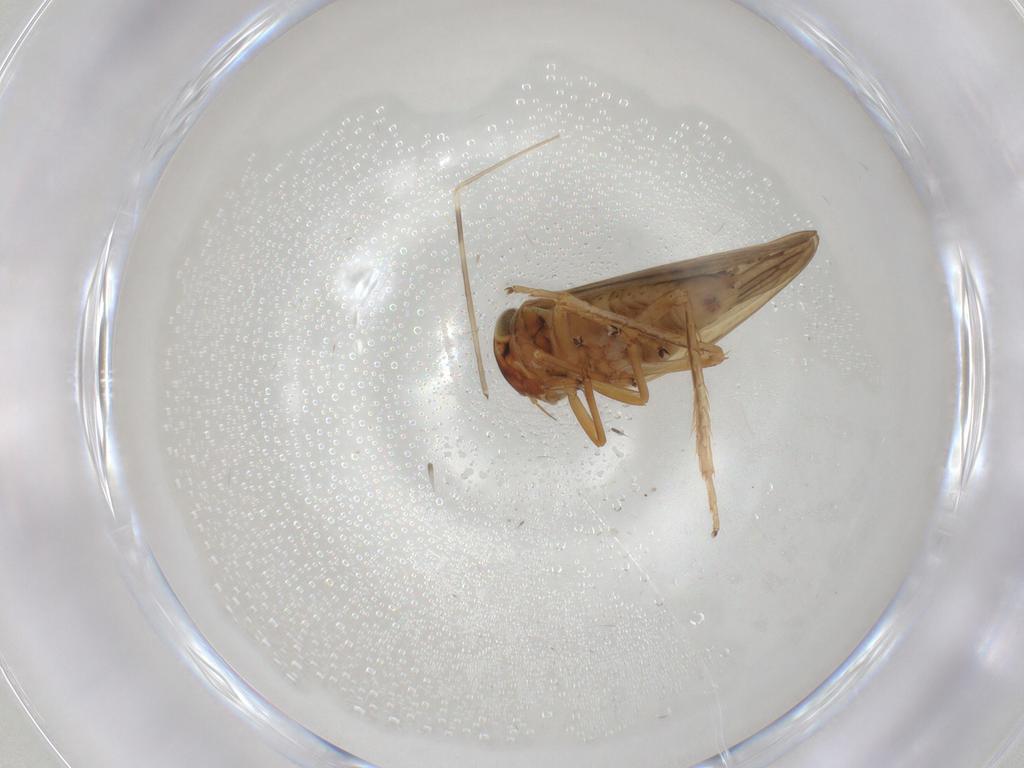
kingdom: Animalia
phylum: Arthropoda
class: Insecta
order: Hemiptera
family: Cicadellidae
